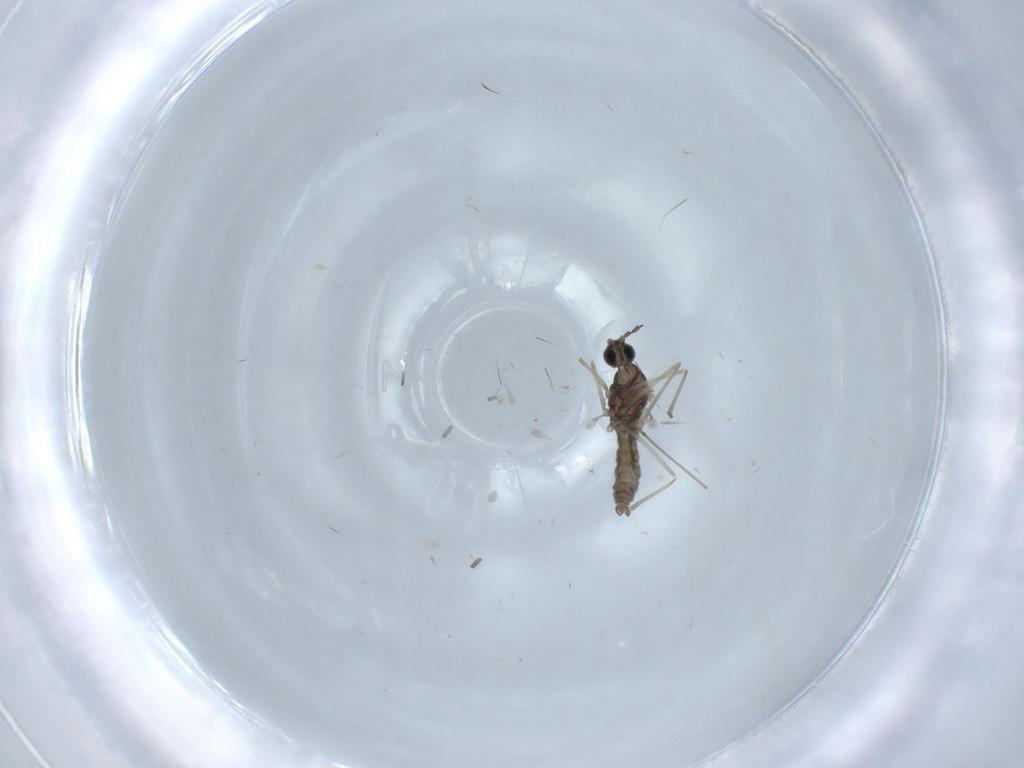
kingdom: Animalia
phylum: Arthropoda
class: Insecta
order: Diptera
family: Cecidomyiidae
